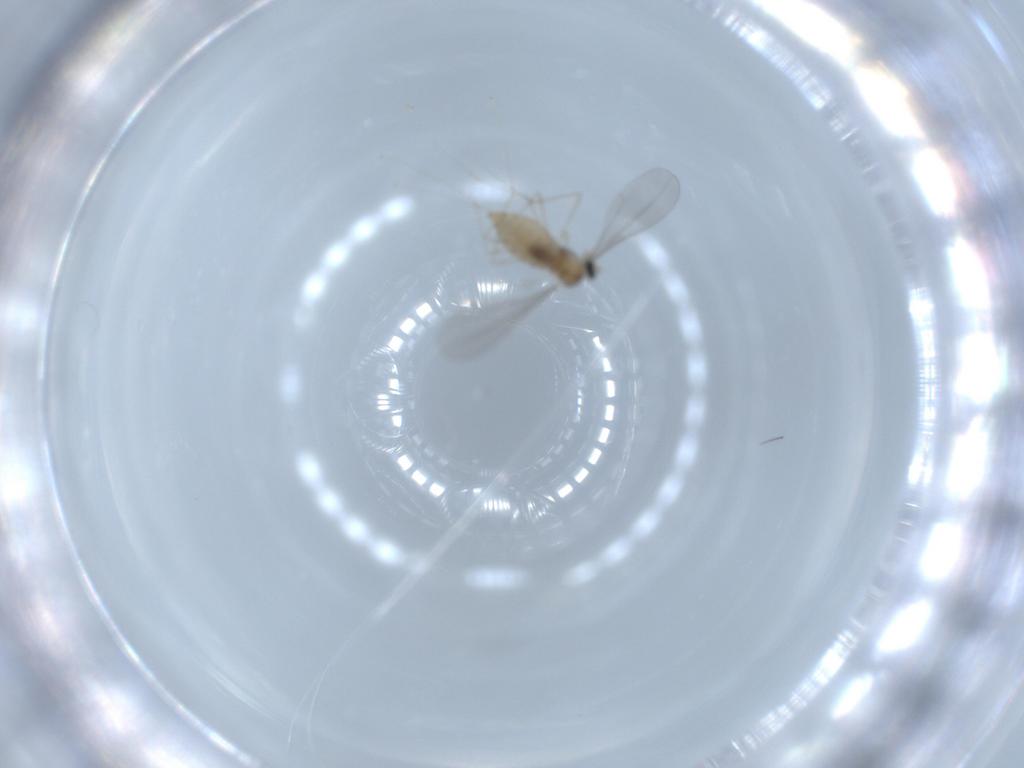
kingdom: Animalia
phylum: Arthropoda
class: Insecta
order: Diptera
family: Cecidomyiidae
